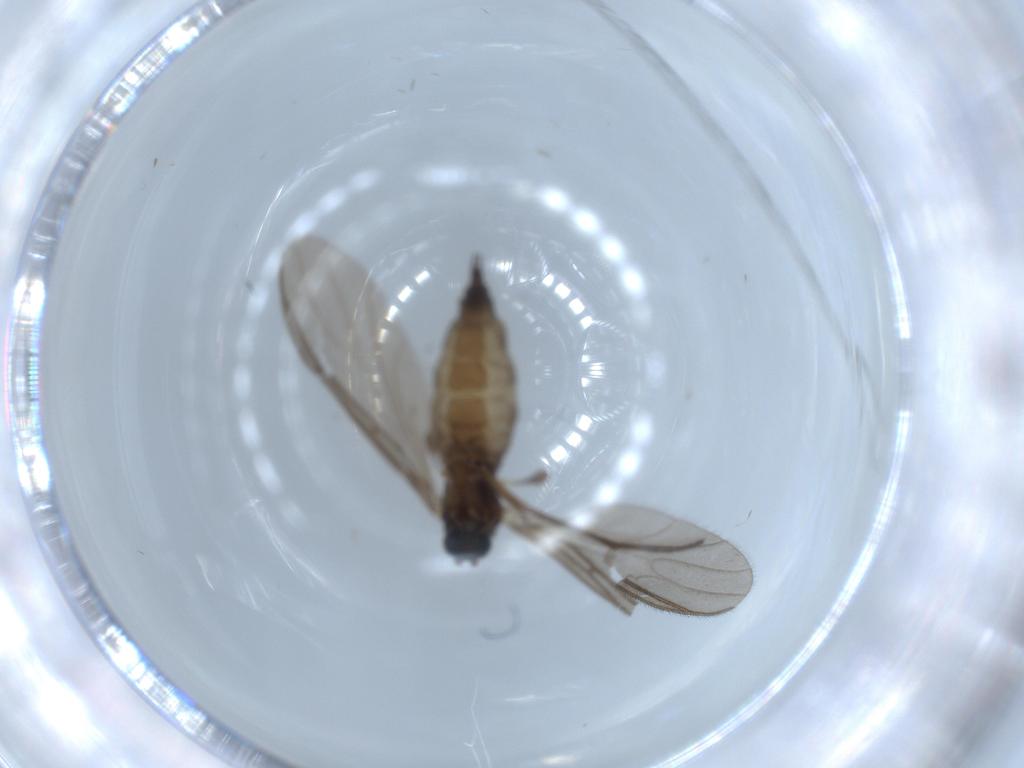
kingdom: Animalia
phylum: Arthropoda
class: Insecta
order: Diptera
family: Sciaridae
